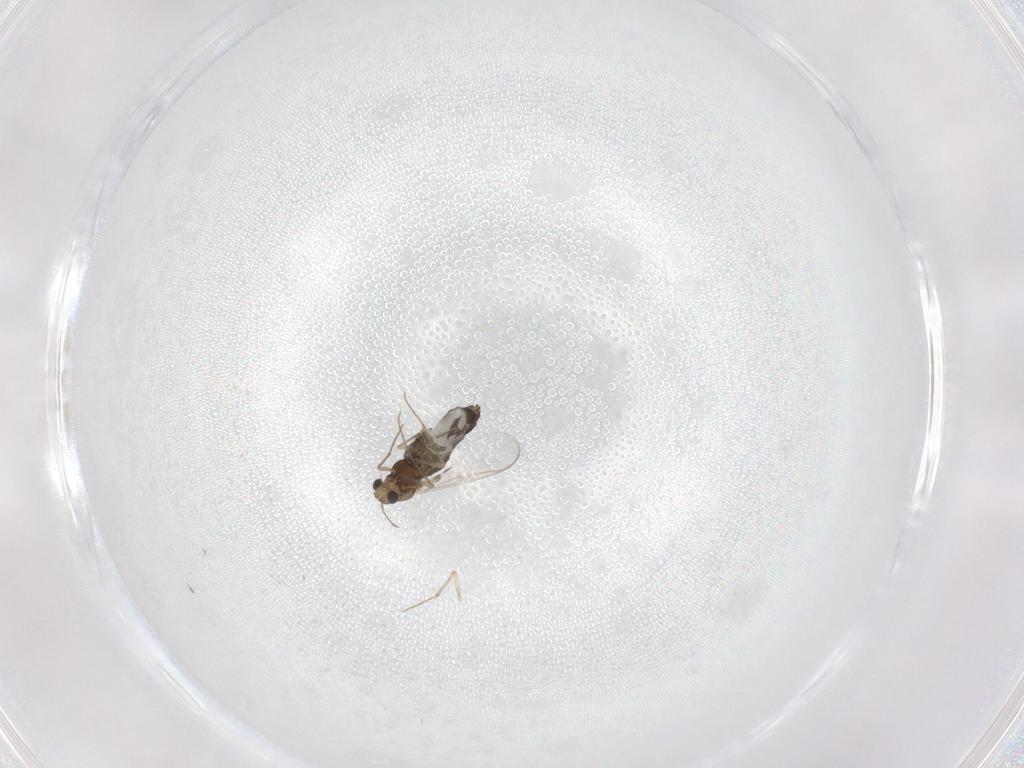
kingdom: Animalia
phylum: Arthropoda
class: Insecta
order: Diptera
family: Chironomidae
